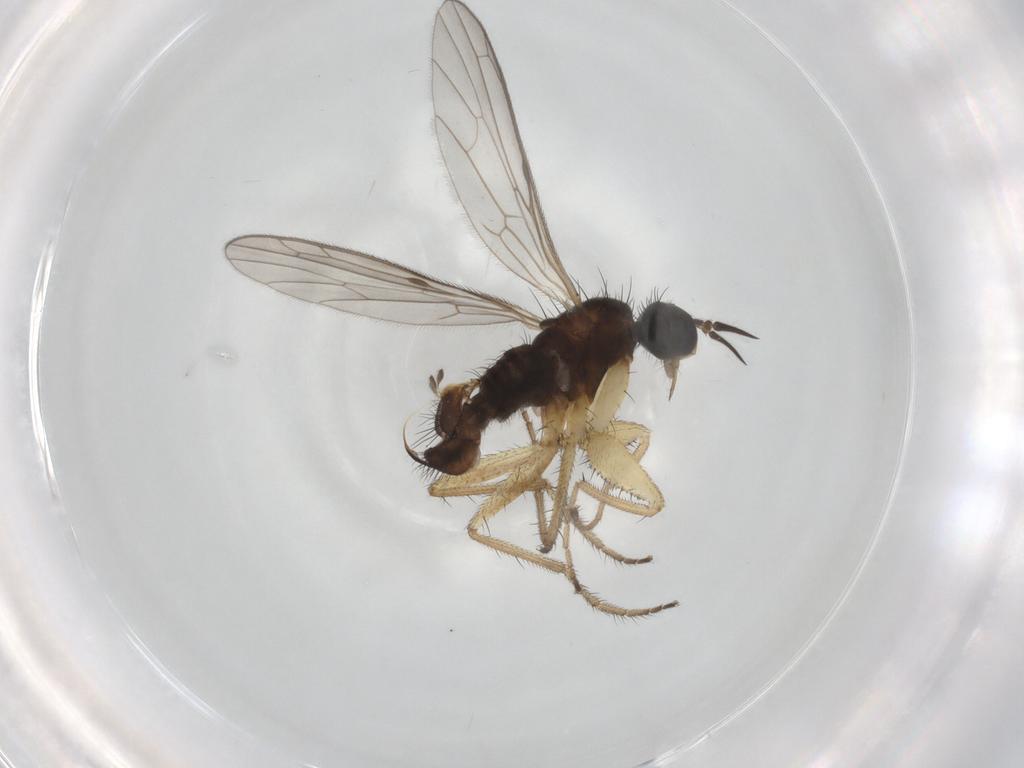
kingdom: Animalia
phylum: Arthropoda
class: Insecta
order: Diptera
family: Chironomidae
